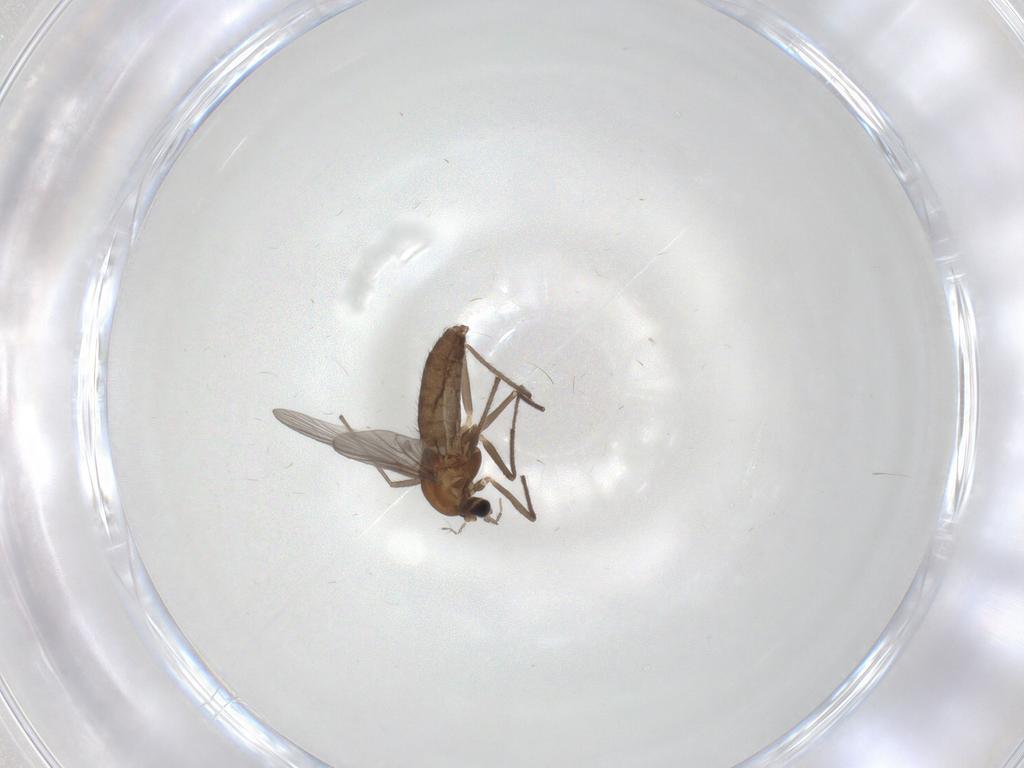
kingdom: Animalia
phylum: Arthropoda
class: Insecta
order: Diptera
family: Chironomidae
